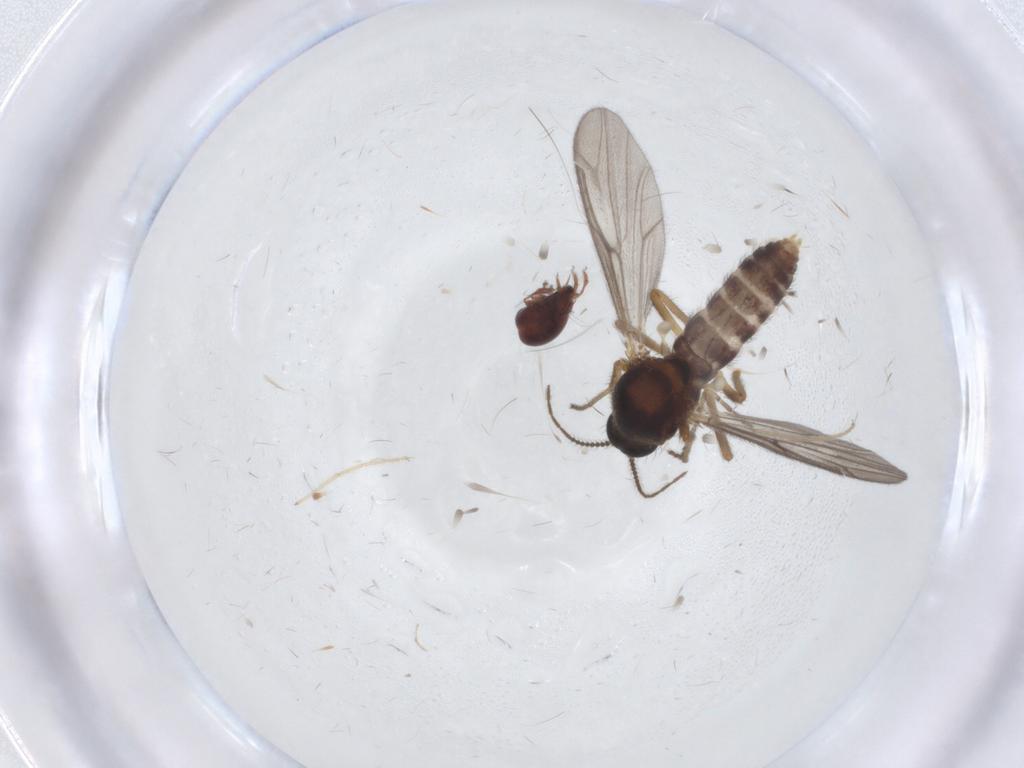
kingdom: Animalia
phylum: Arthropoda
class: Insecta
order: Diptera
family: Ceratopogonidae
